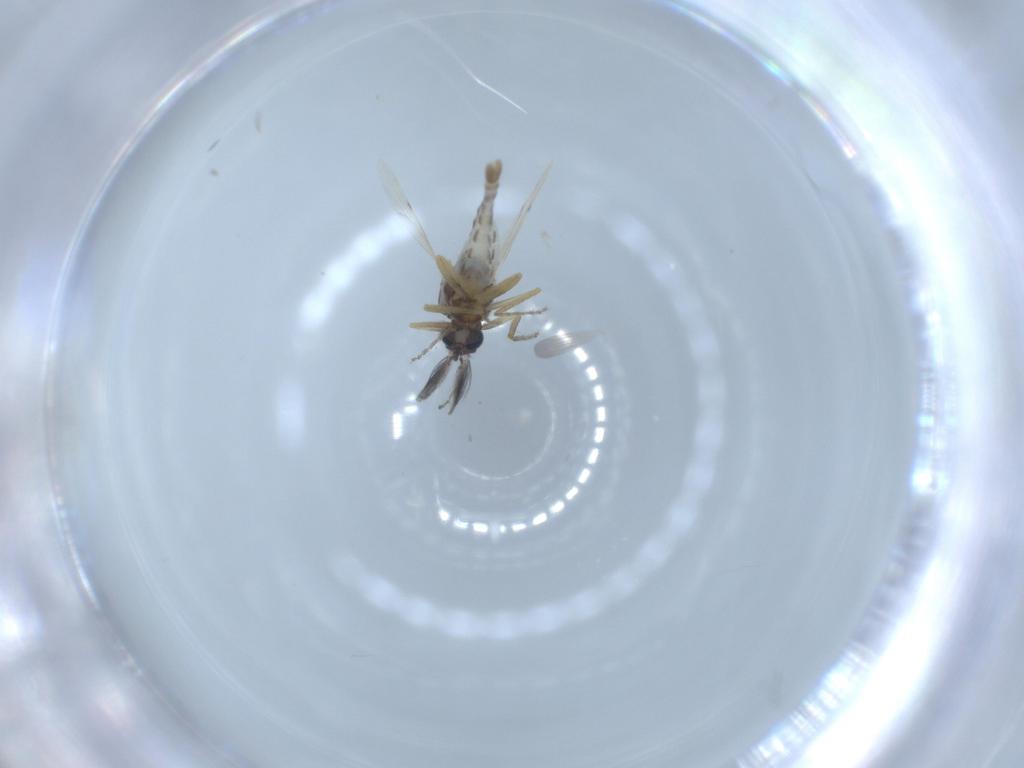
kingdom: Animalia
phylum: Arthropoda
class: Insecta
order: Diptera
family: Ceratopogonidae
